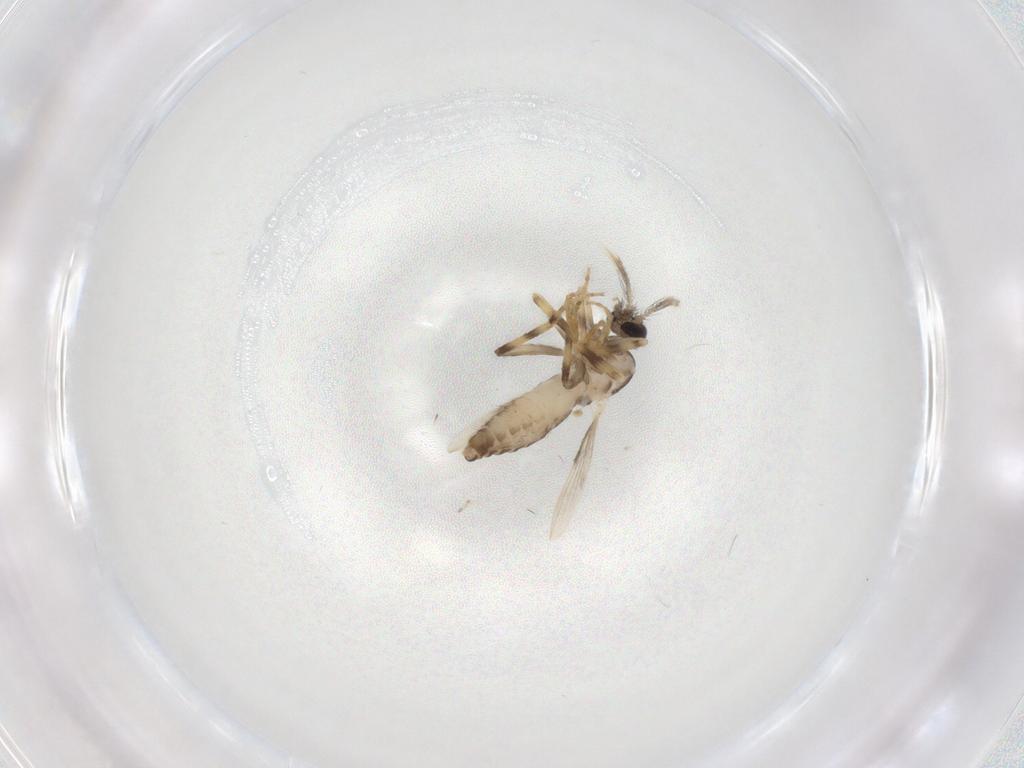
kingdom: Animalia
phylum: Arthropoda
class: Insecta
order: Diptera
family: Ceratopogonidae
